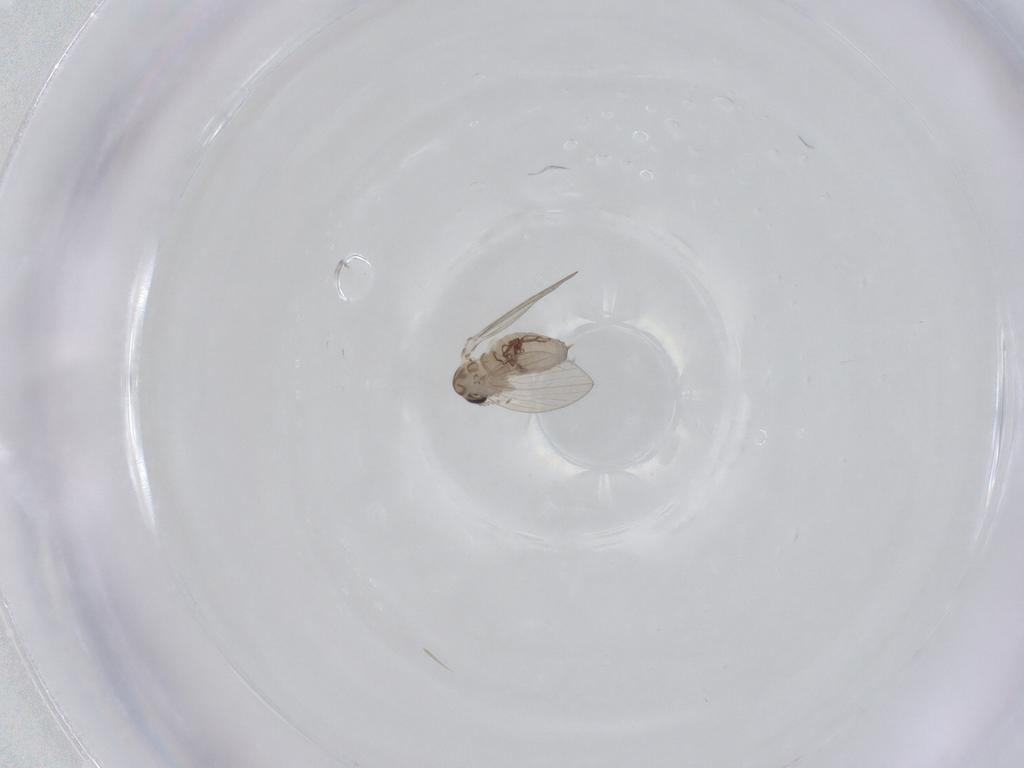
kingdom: Animalia
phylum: Arthropoda
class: Insecta
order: Diptera
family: Psychodidae
